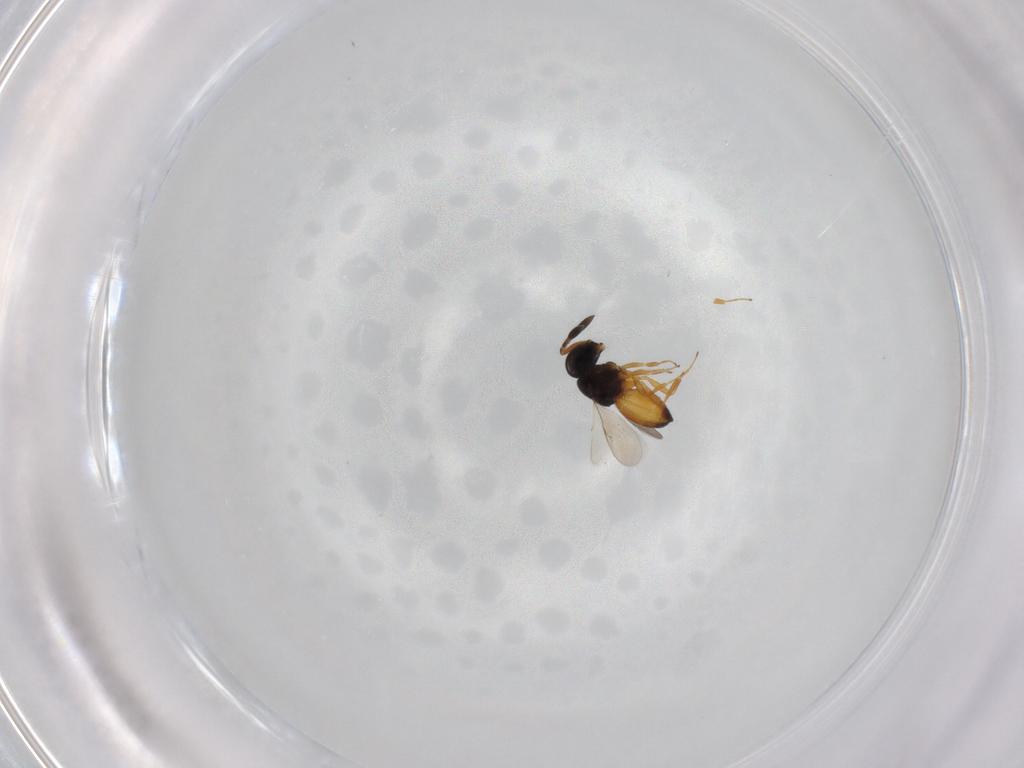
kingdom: Animalia
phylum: Arthropoda
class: Insecta
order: Hymenoptera
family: Scelionidae
